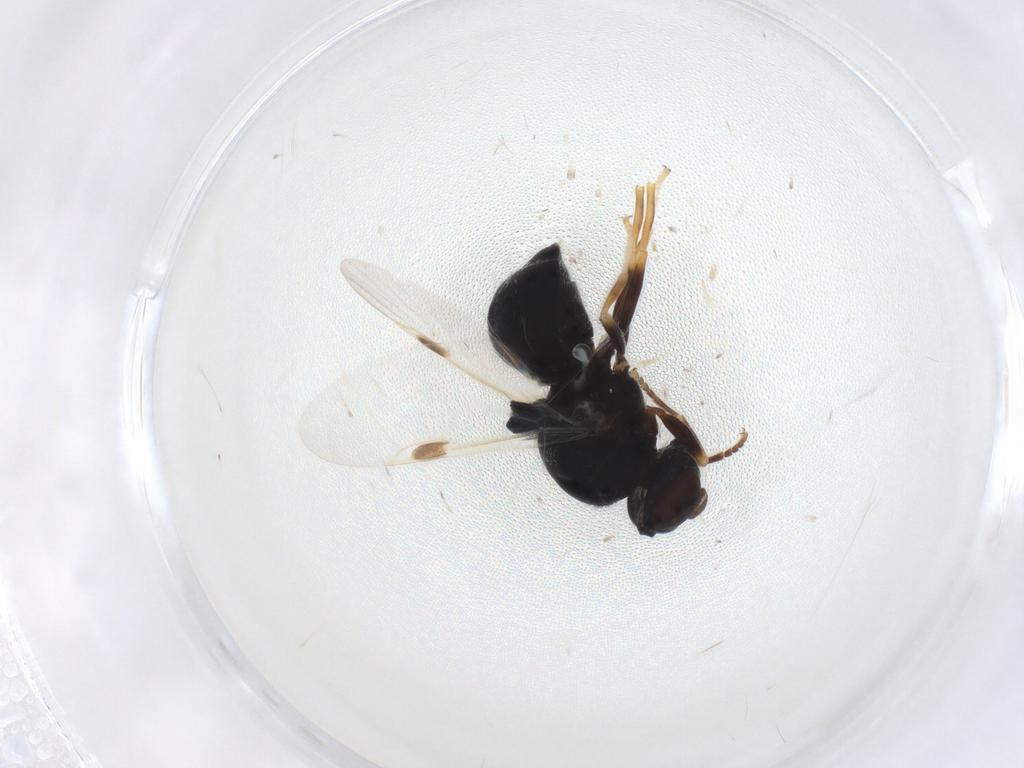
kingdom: Animalia
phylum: Arthropoda
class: Insecta
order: Diptera
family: Stratiomyidae
